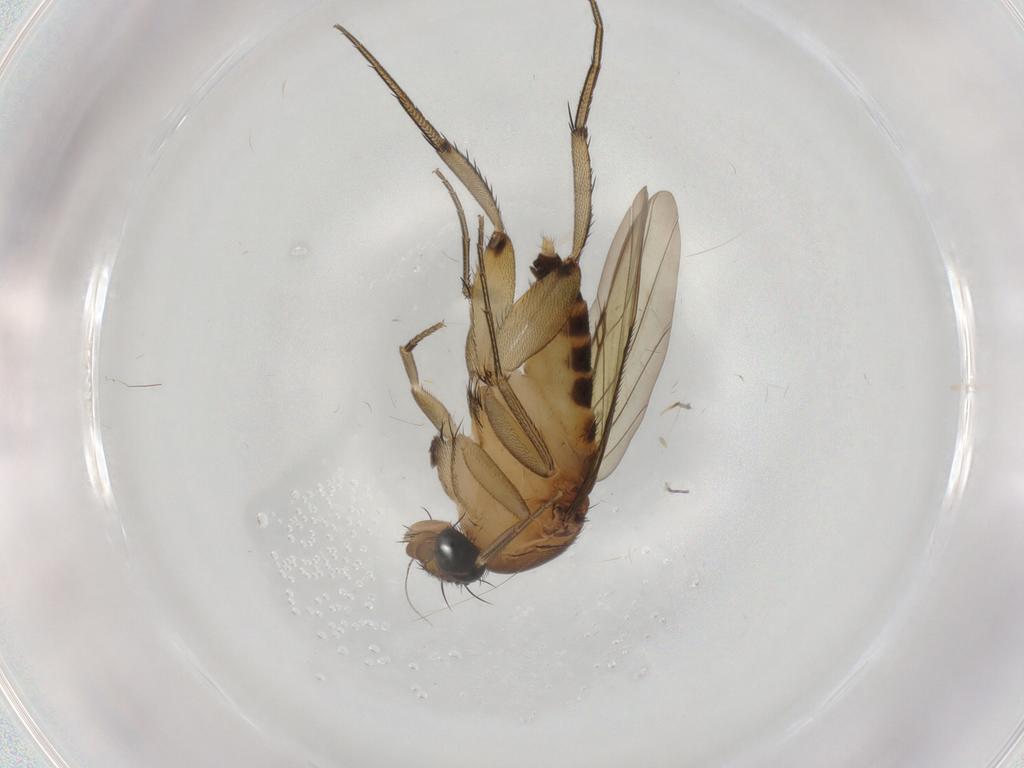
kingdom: Animalia
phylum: Arthropoda
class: Insecta
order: Diptera
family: Phoridae
